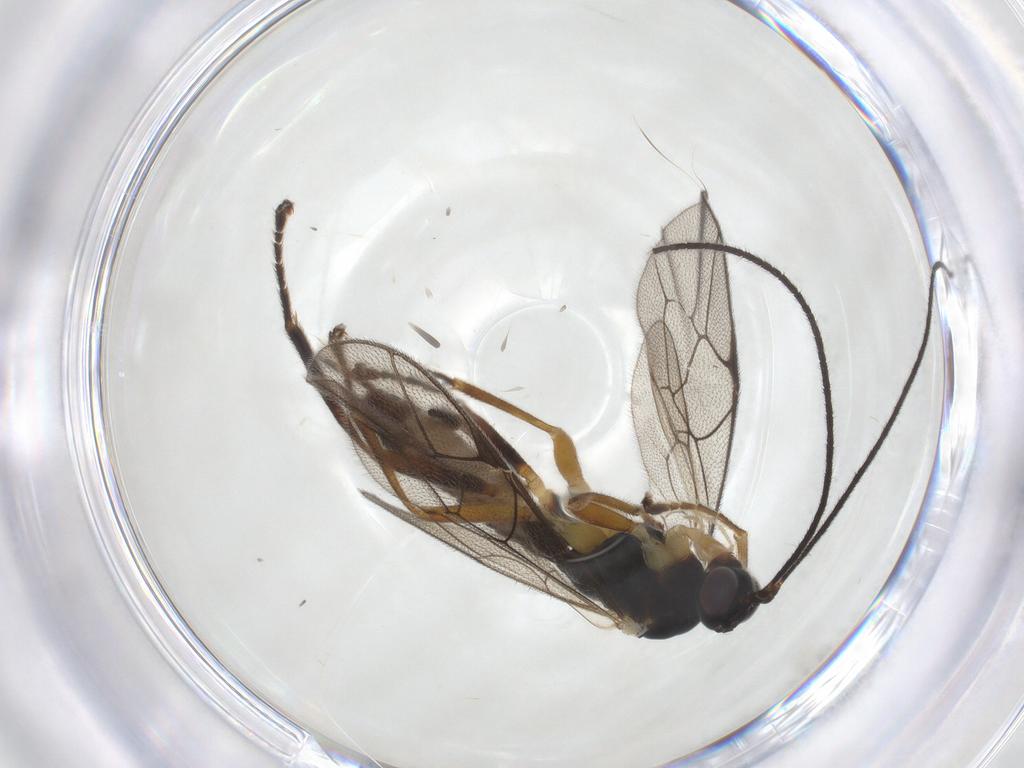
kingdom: Animalia
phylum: Arthropoda
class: Insecta
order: Hymenoptera
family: Ichneumonidae
